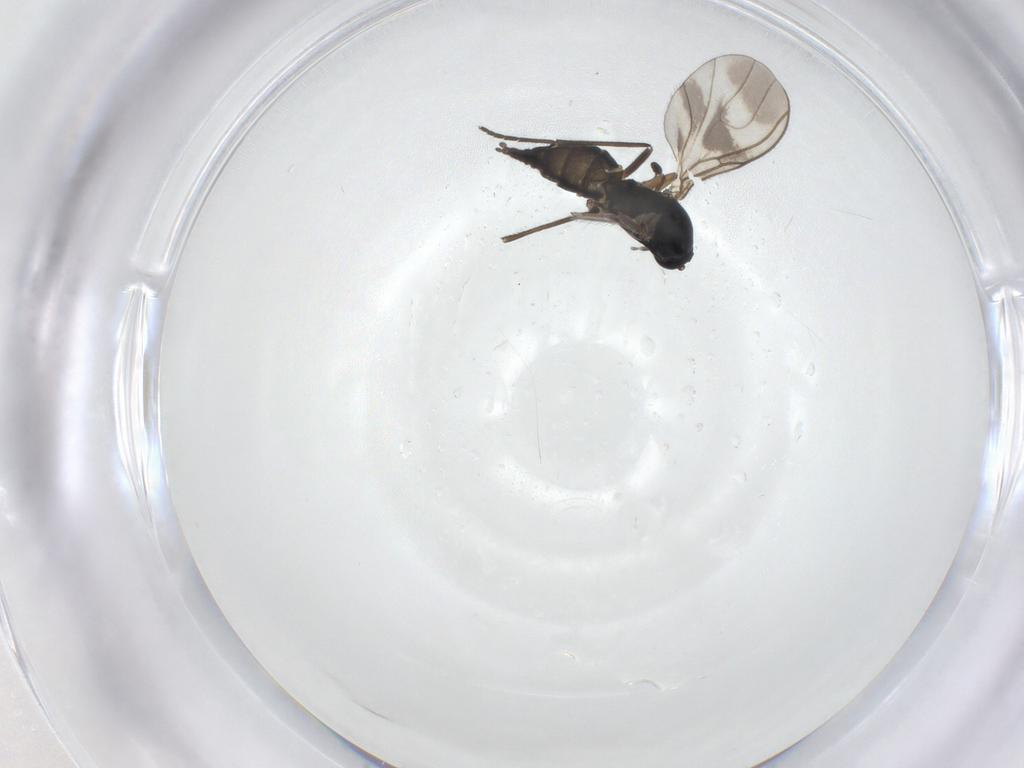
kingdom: Animalia
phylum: Arthropoda
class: Insecta
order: Diptera
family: Sciaridae
